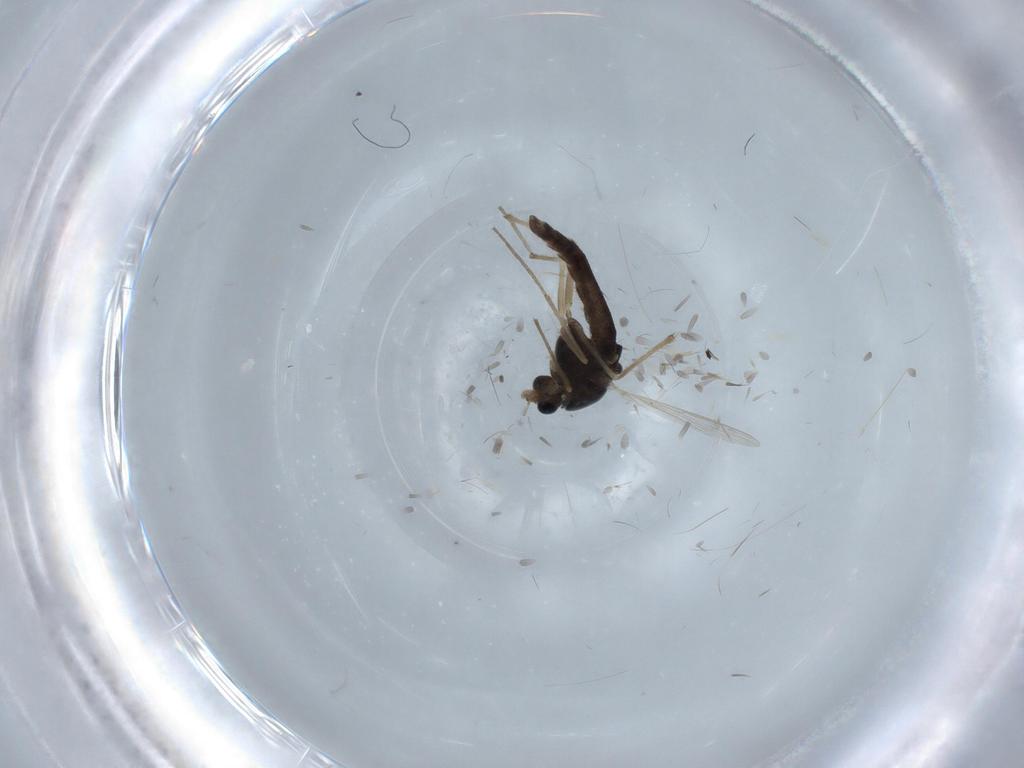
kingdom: Animalia
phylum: Arthropoda
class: Insecta
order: Diptera
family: Chironomidae
